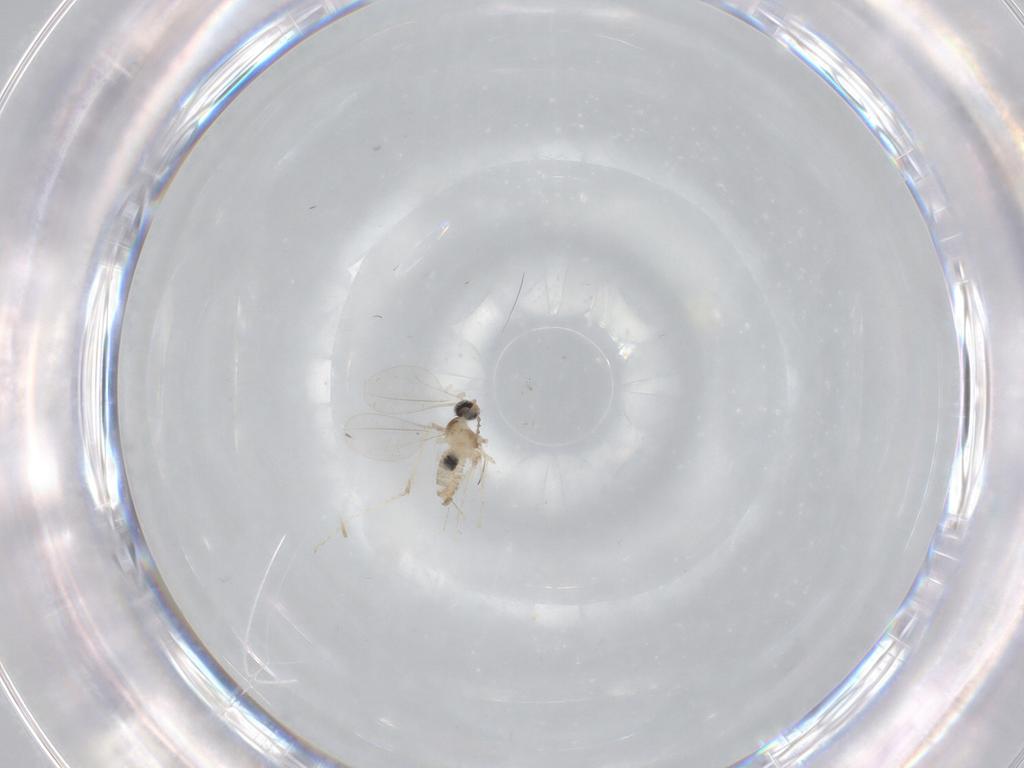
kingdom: Animalia
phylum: Arthropoda
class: Insecta
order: Diptera
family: Cecidomyiidae
